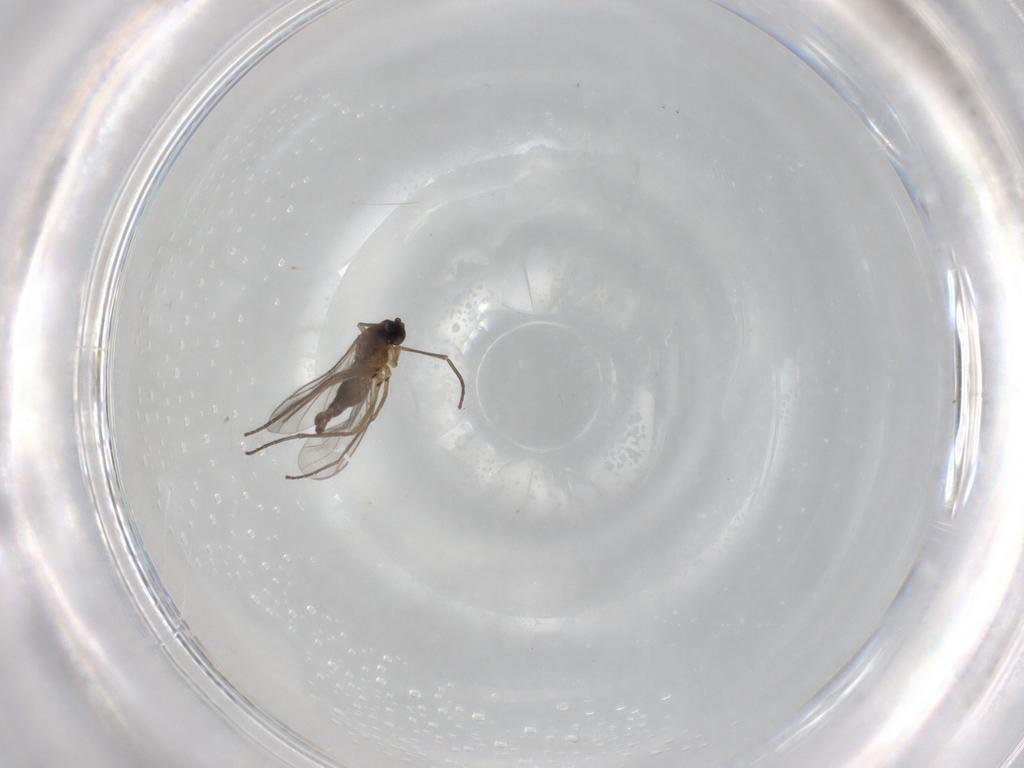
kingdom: Animalia
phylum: Arthropoda
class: Insecta
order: Diptera
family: Sciaridae
